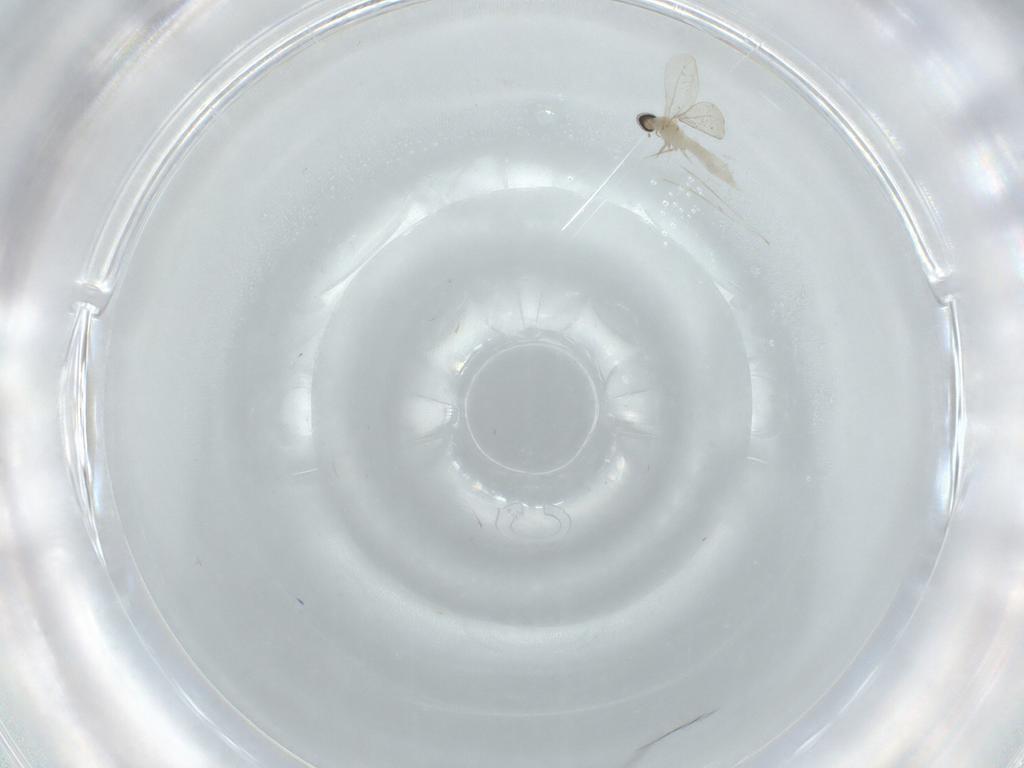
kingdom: Animalia
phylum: Arthropoda
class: Insecta
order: Diptera
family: Cecidomyiidae
